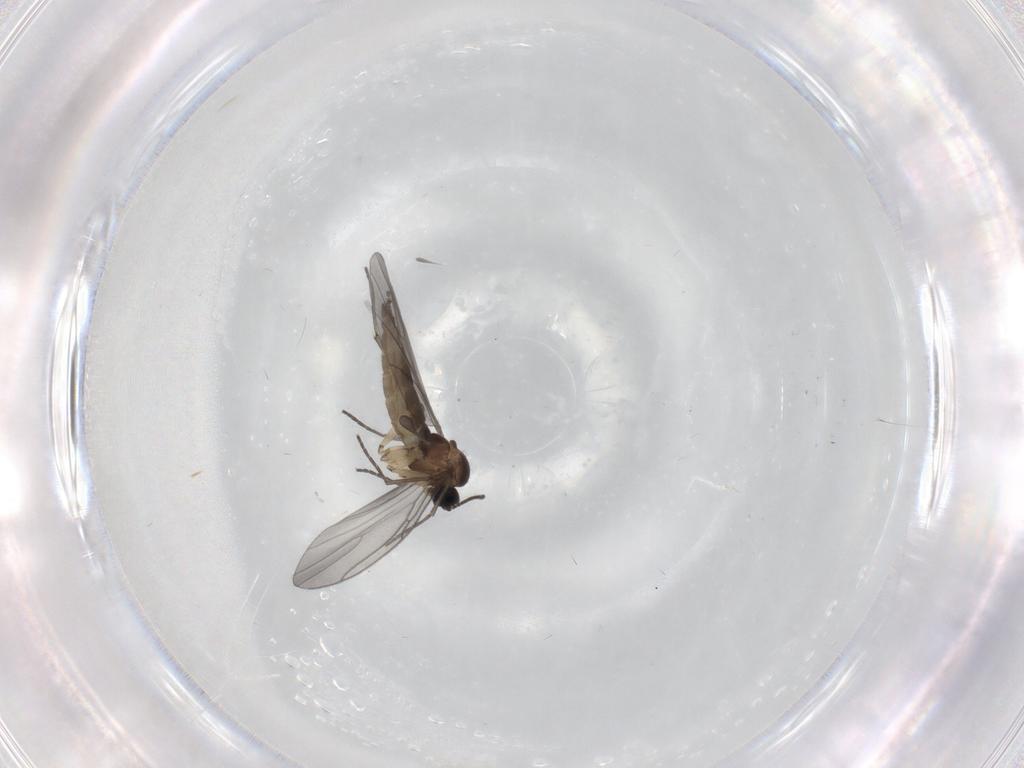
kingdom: Animalia
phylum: Arthropoda
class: Insecta
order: Diptera
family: Sciaridae
